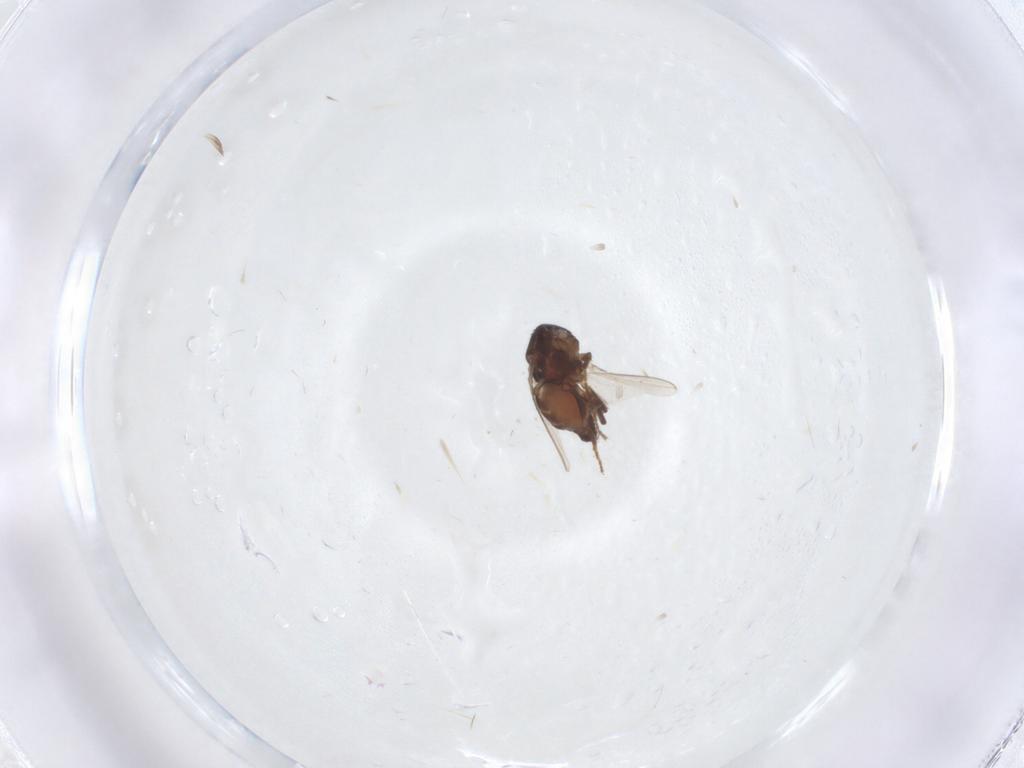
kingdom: Animalia
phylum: Arthropoda
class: Insecta
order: Diptera
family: Sphaeroceridae
